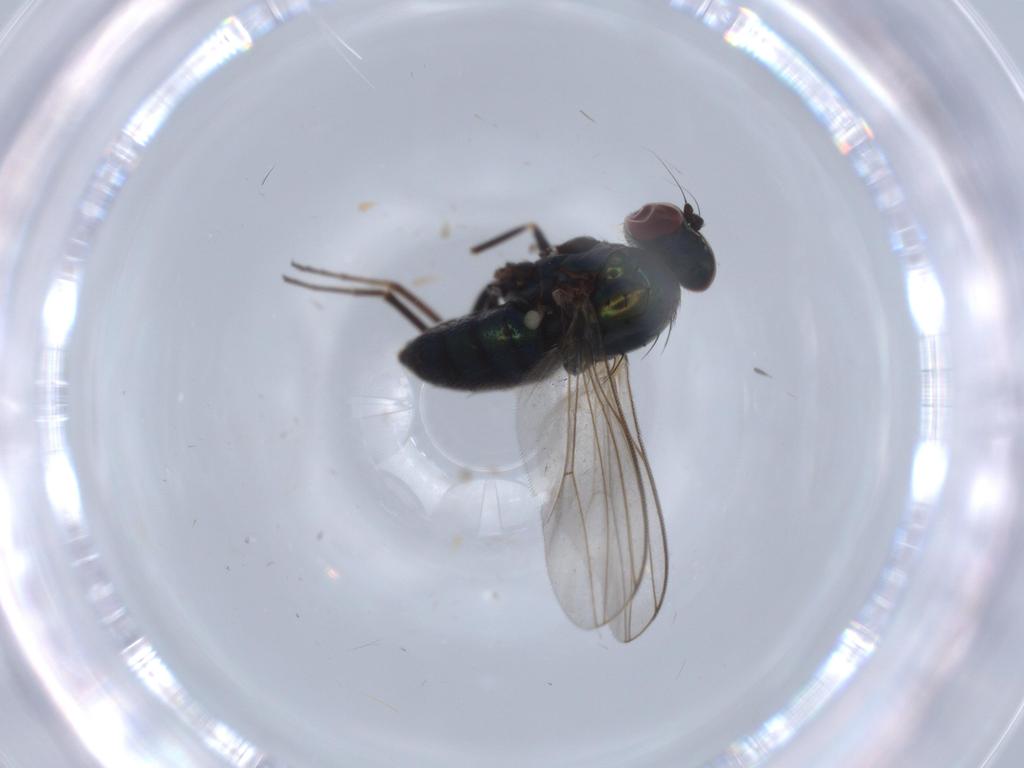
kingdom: Animalia
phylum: Arthropoda
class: Insecta
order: Diptera
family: Dolichopodidae
